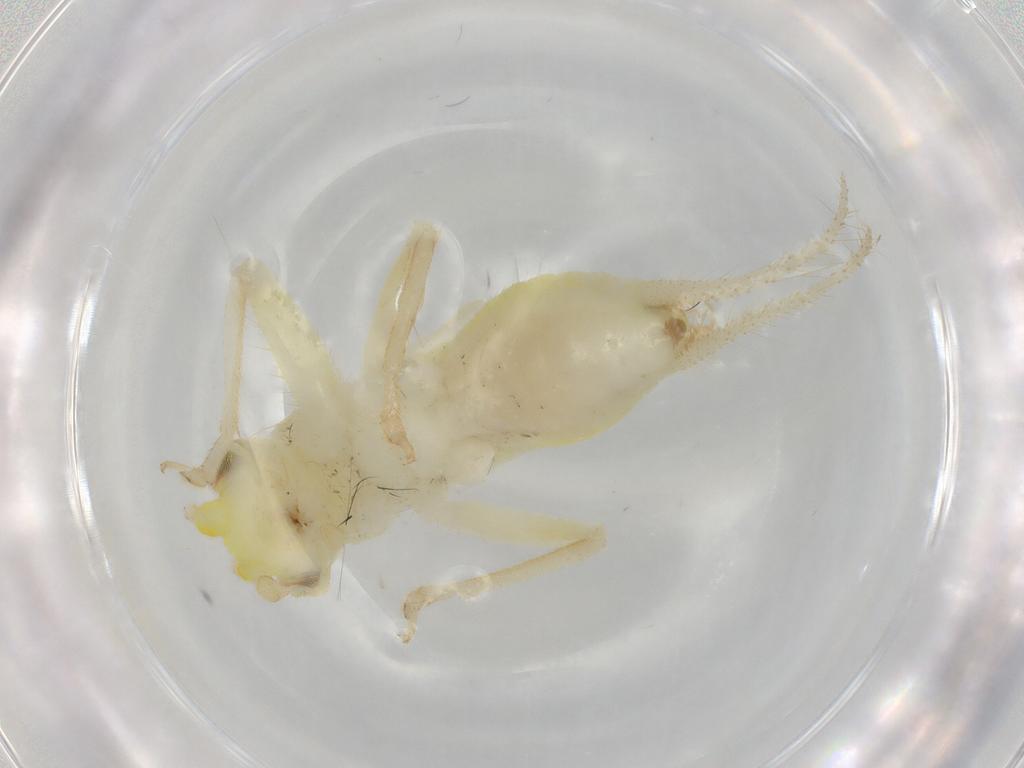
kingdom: Animalia
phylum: Arthropoda
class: Insecta
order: Orthoptera
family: Trigonidiidae
